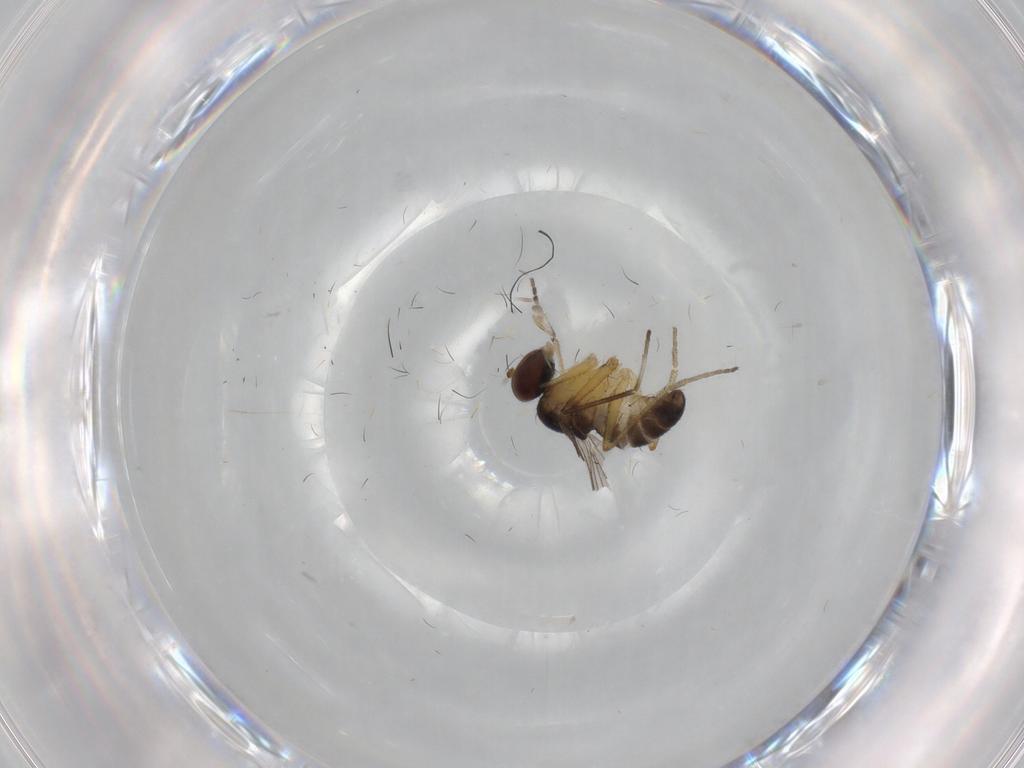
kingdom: Animalia
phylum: Arthropoda
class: Insecta
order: Diptera
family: Dolichopodidae
